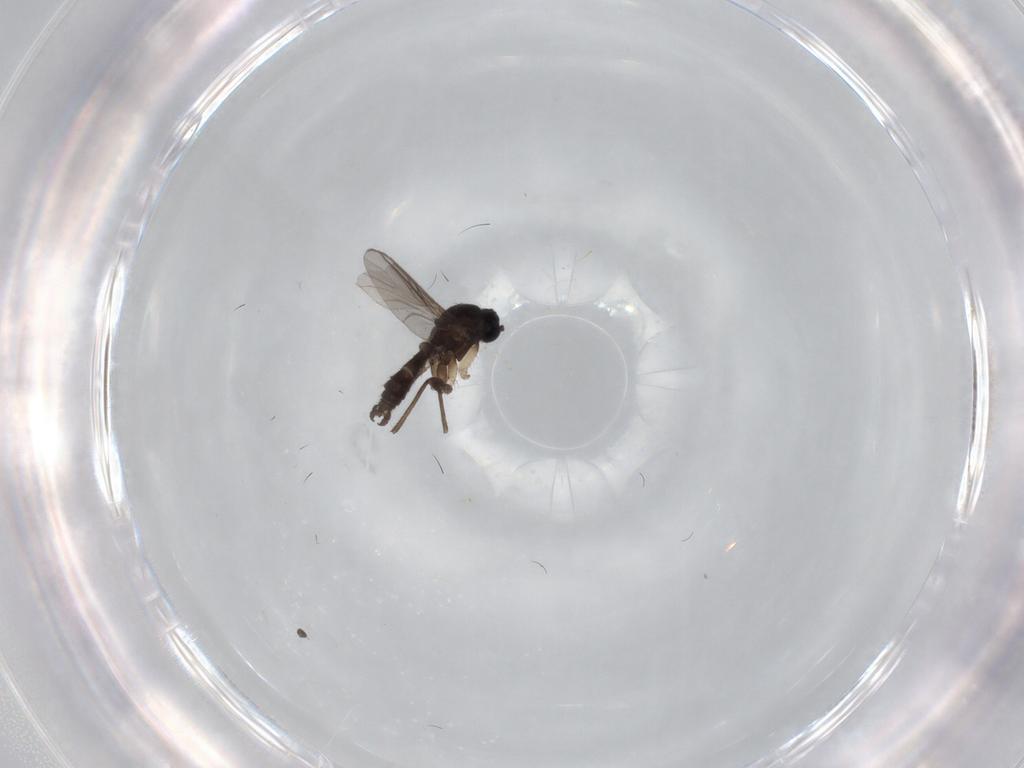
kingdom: Animalia
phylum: Arthropoda
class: Insecta
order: Diptera
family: Sciaridae
